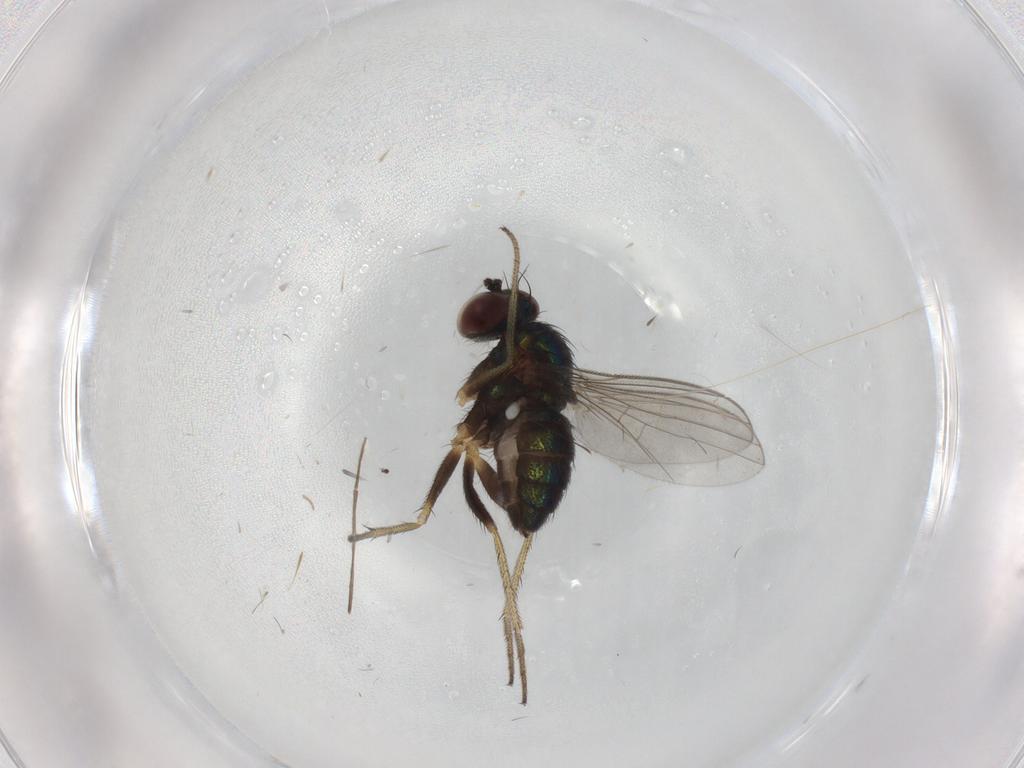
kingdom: Animalia
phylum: Arthropoda
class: Insecta
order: Diptera
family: Chironomidae
